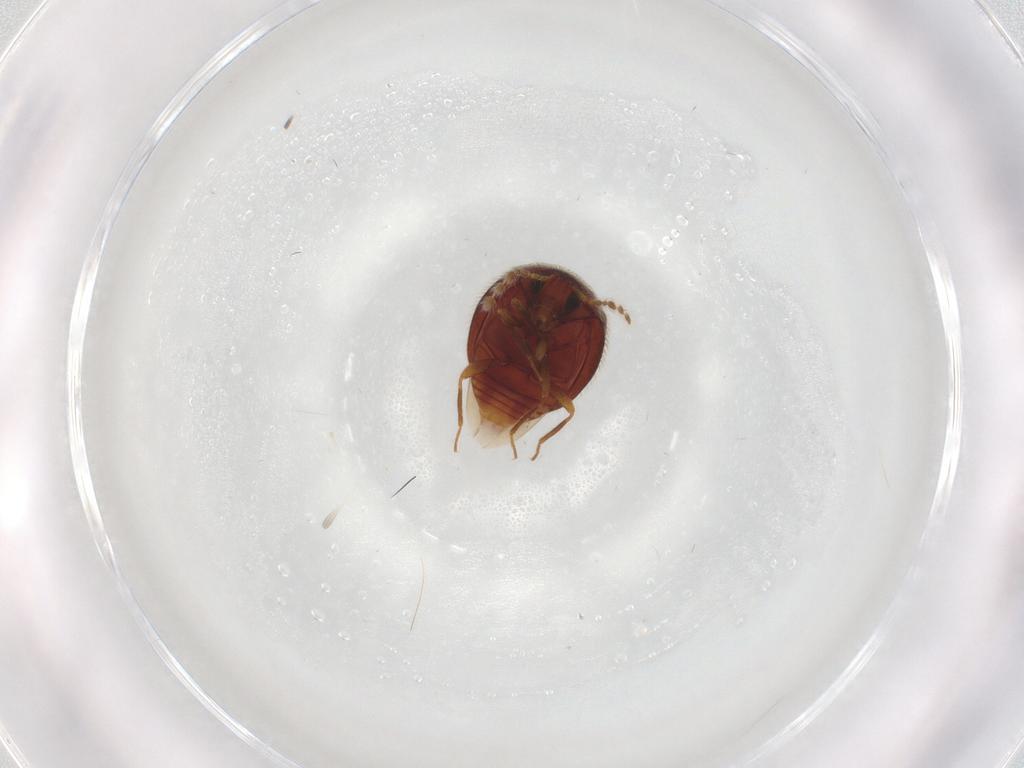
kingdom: Animalia
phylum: Arthropoda
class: Insecta
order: Coleoptera
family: Anamorphidae
